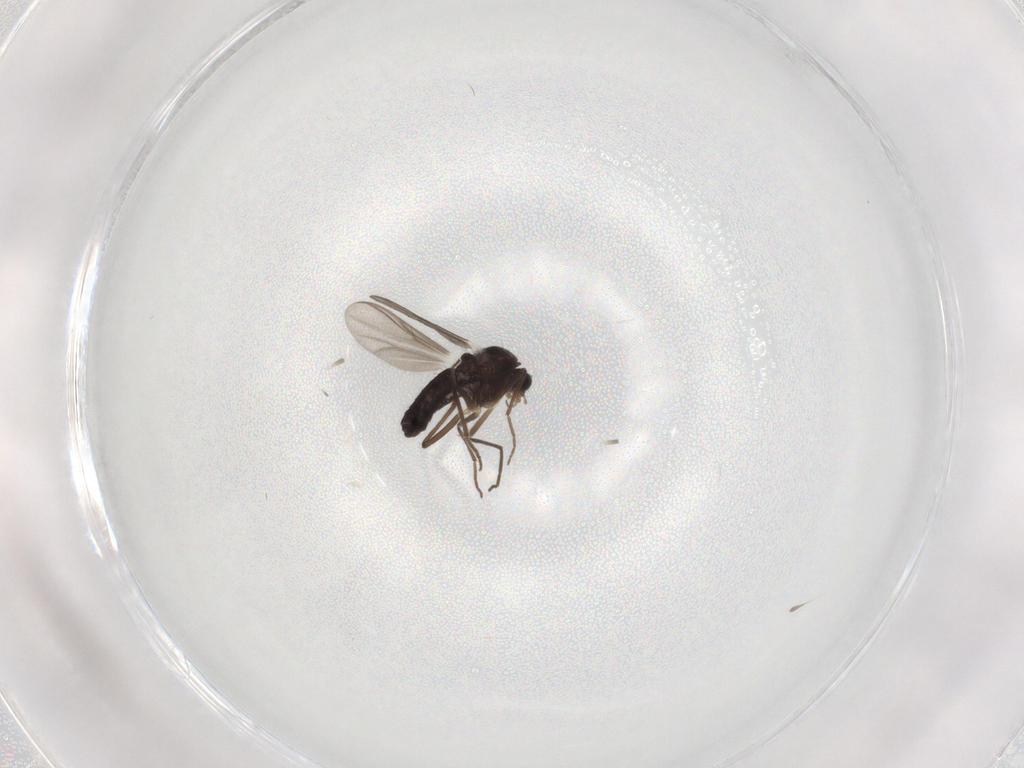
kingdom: Animalia
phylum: Arthropoda
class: Insecta
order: Diptera
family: Chironomidae
